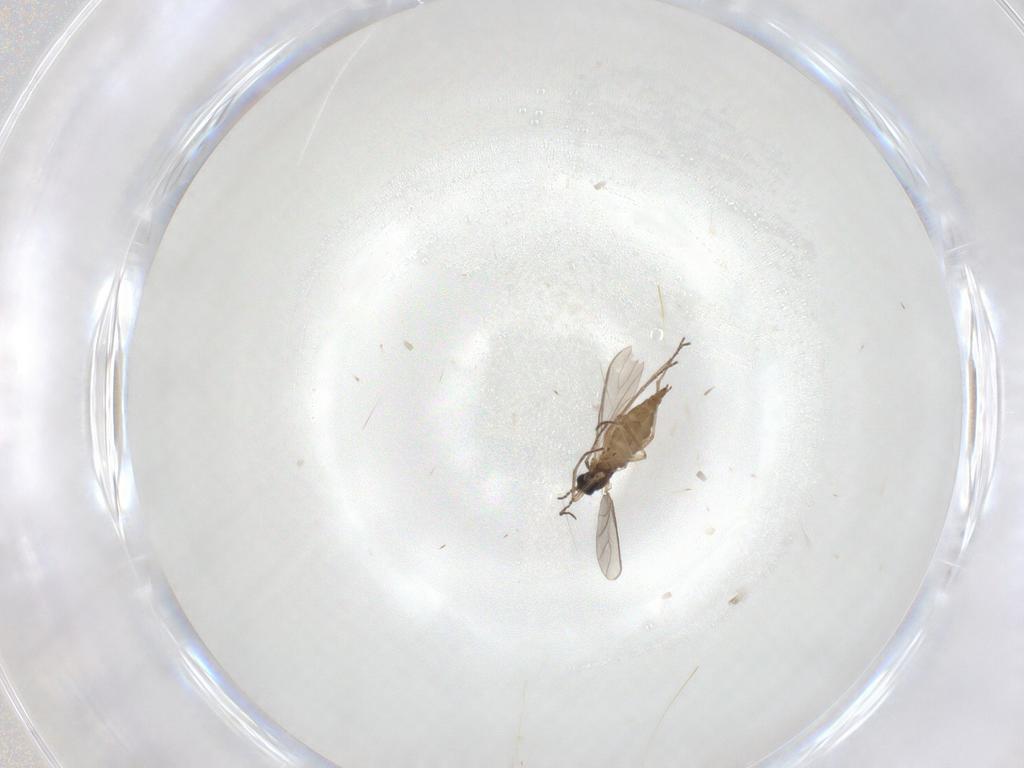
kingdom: Animalia
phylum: Arthropoda
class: Insecta
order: Diptera
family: Sciaridae
